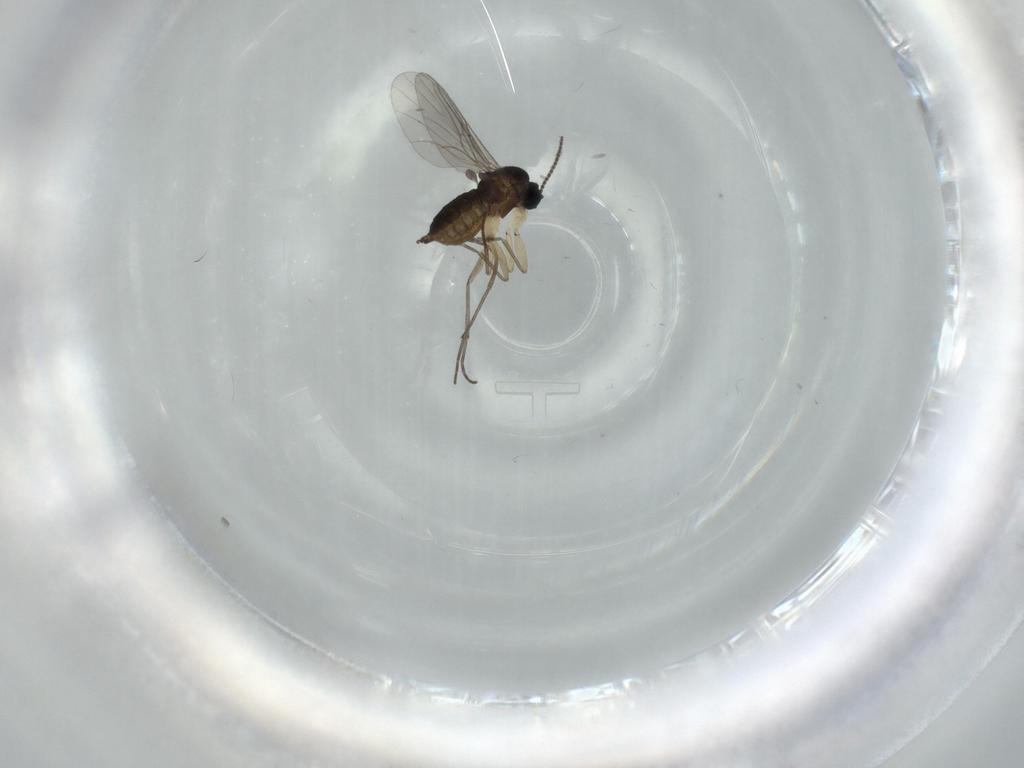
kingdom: Animalia
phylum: Arthropoda
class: Insecta
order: Diptera
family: Sciaridae
